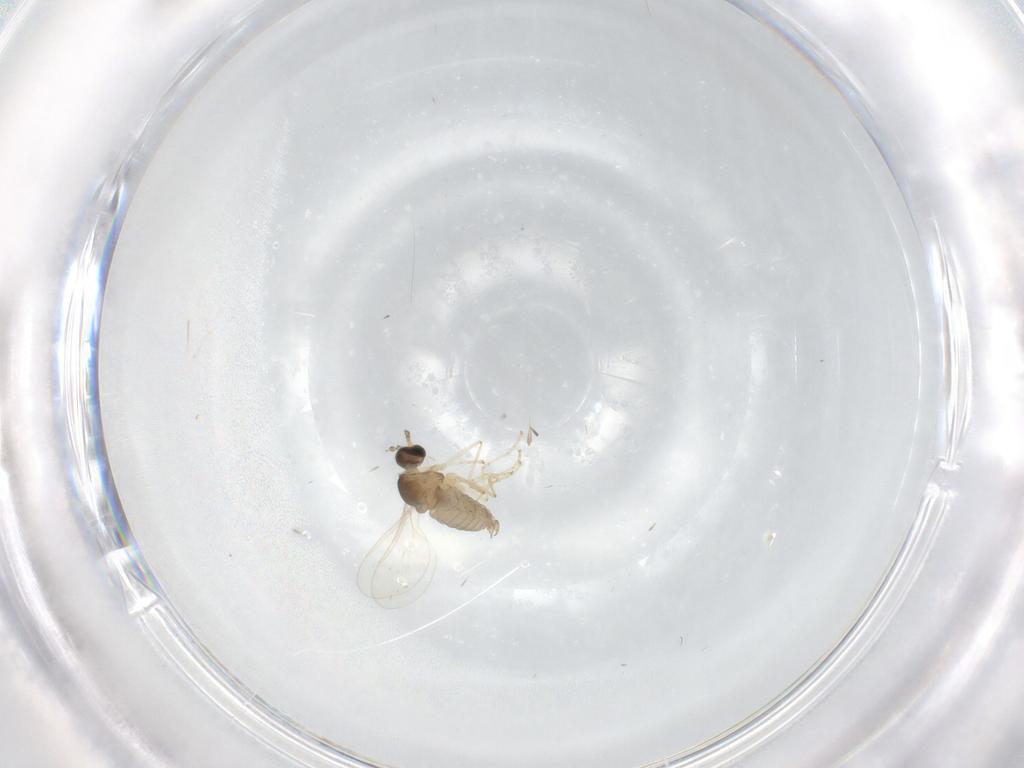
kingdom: Animalia
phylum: Arthropoda
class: Insecta
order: Diptera
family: Cecidomyiidae
